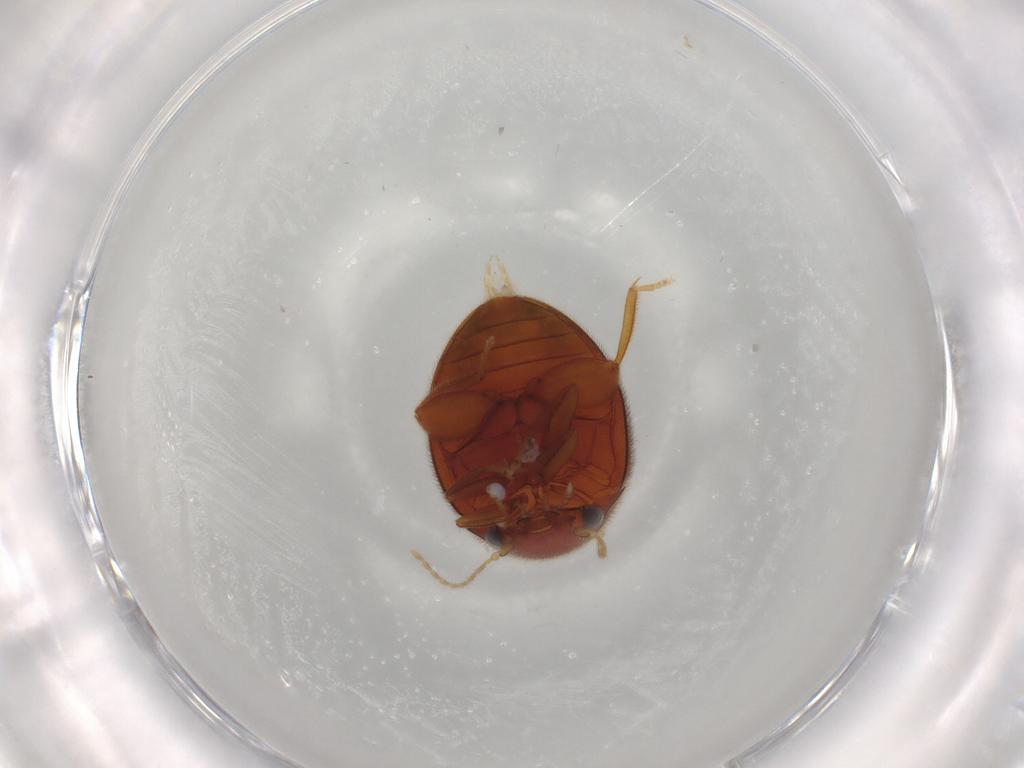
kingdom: Animalia
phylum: Arthropoda
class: Insecta
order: Coleoptera
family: Scirtidae
